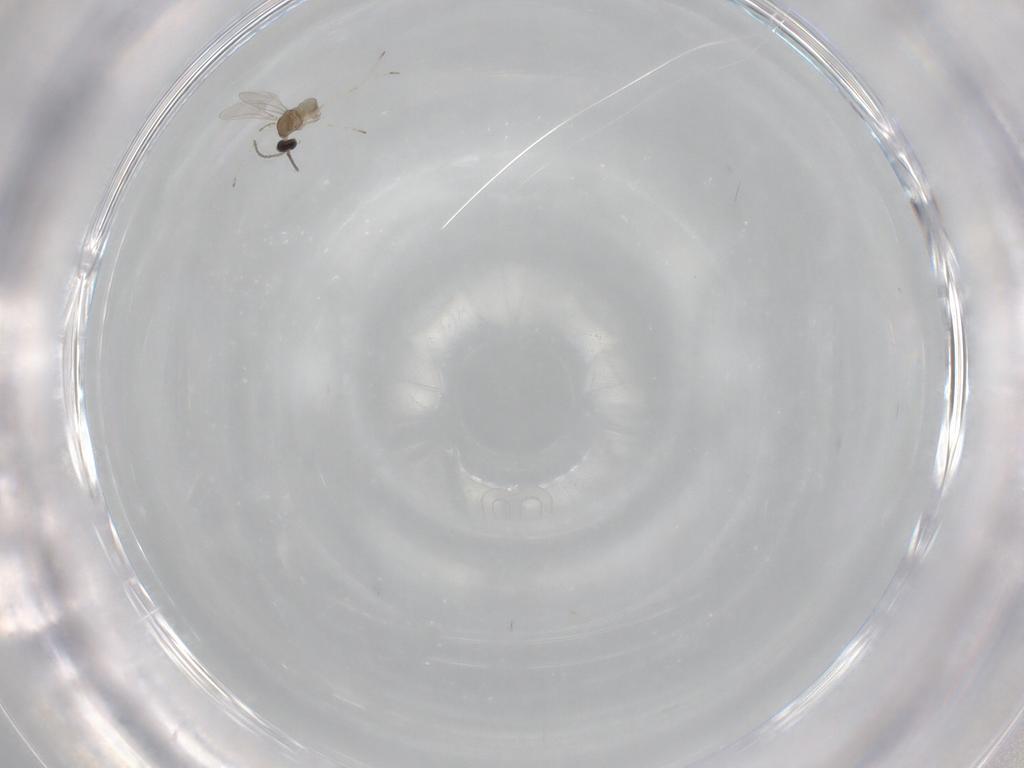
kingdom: Animalia
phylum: Arthropoda
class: Insecta
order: Diptera
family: Cecidomyiidae
